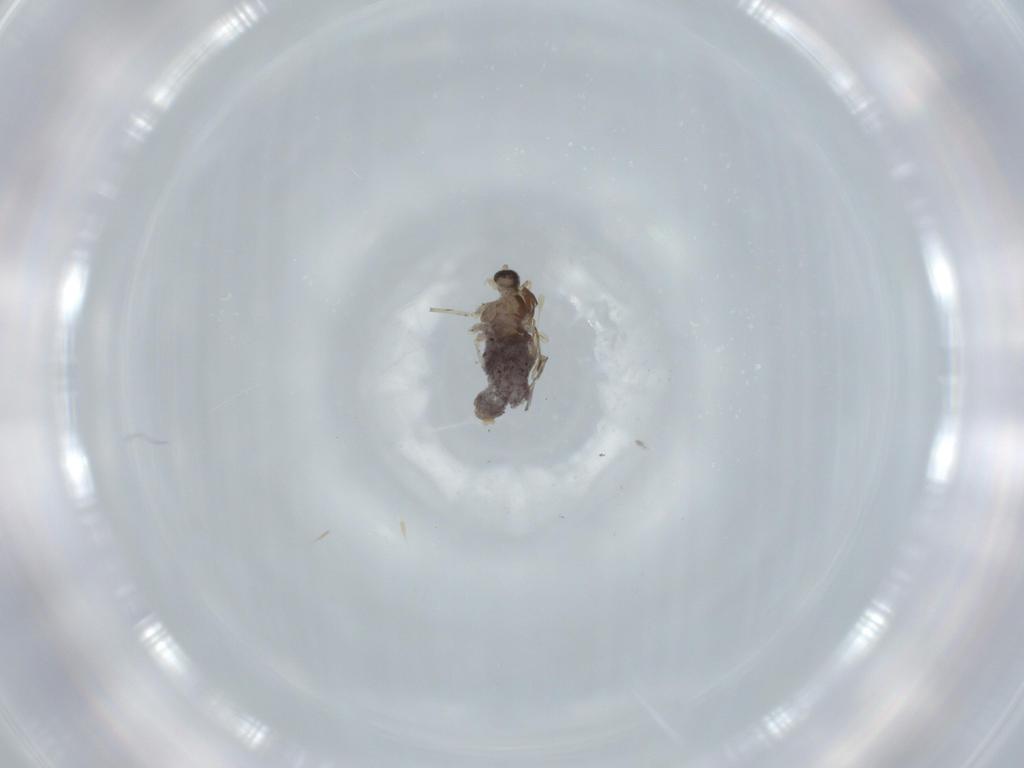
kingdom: Animalia
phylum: Arthropoda
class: Insecta
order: Diptera
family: Cecidomyiidae
